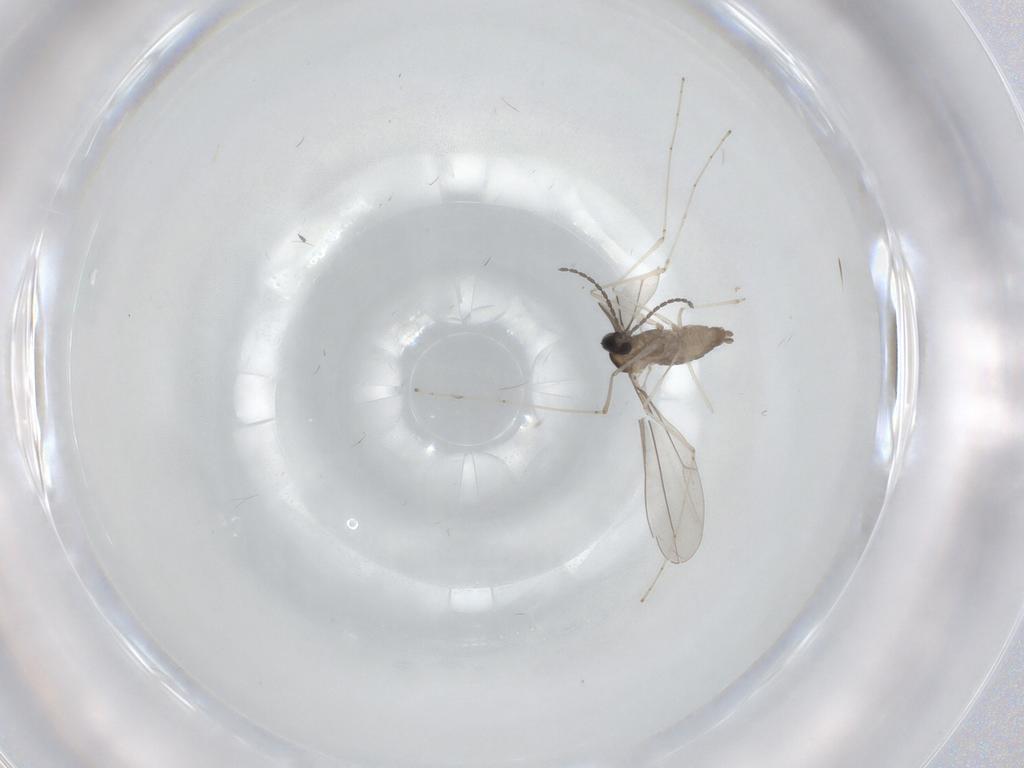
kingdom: Animalia
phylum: Arthropoda
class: Insecta
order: Diptera
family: Cecidomyiidae
